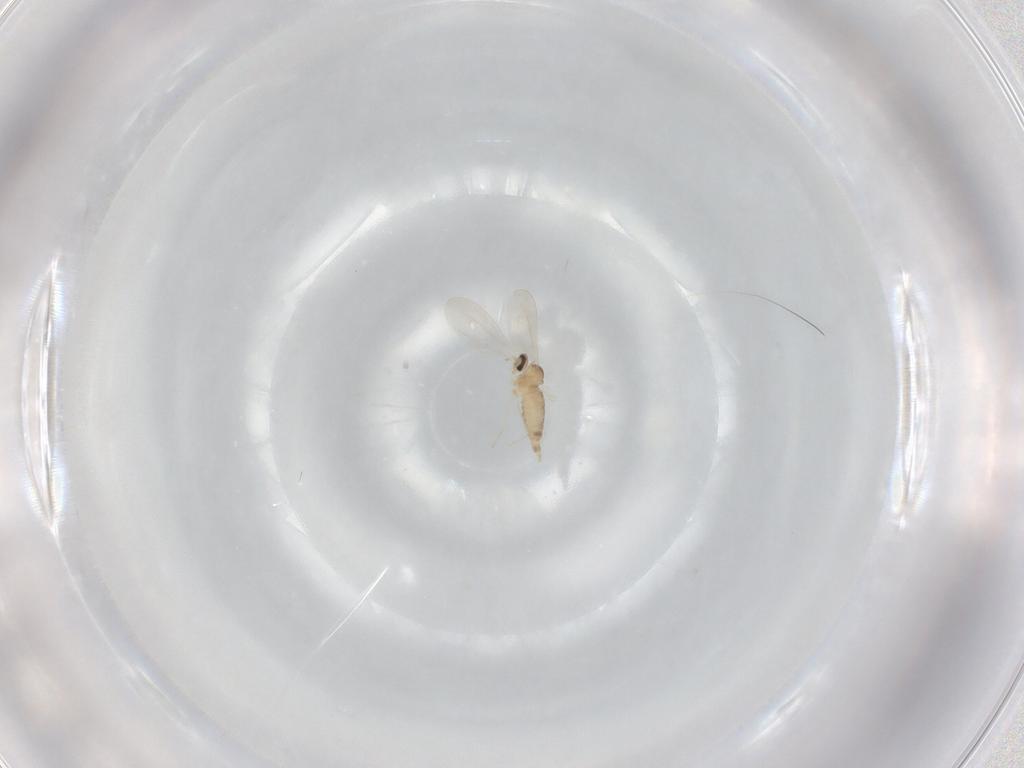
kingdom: Animalia
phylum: Arthropoda
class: Insecta
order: Diptera
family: Cecidomyiidae
